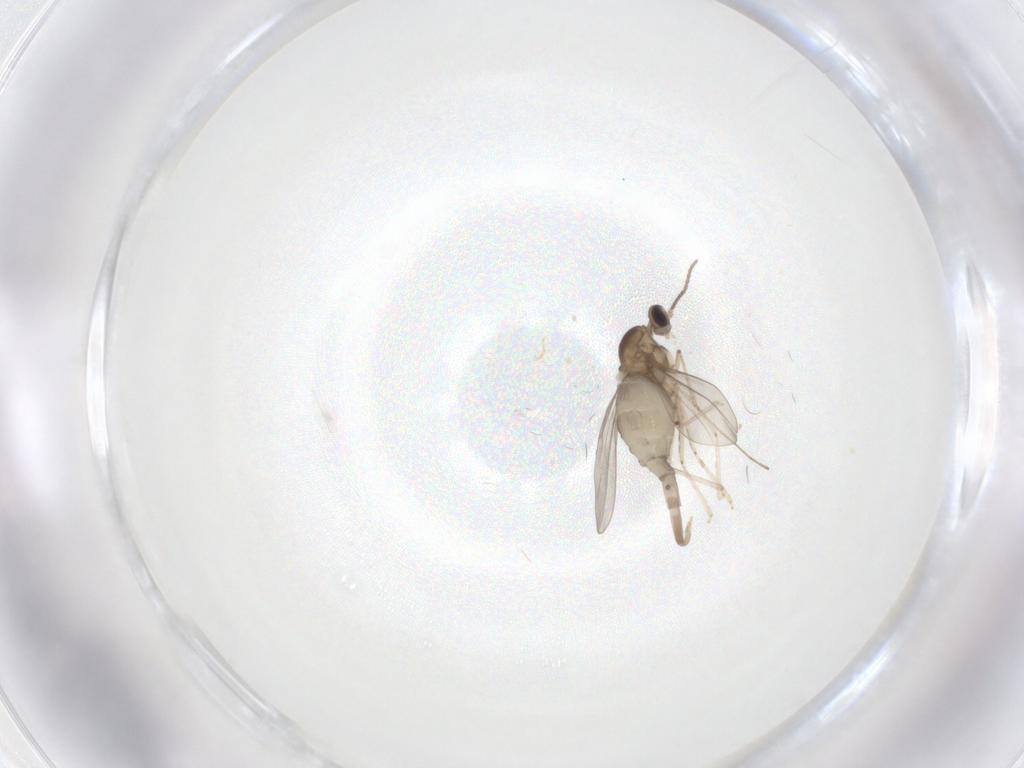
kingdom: Animalia
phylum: Arthropoda
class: Insecta
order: Diptera
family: Cecidomyiidae
